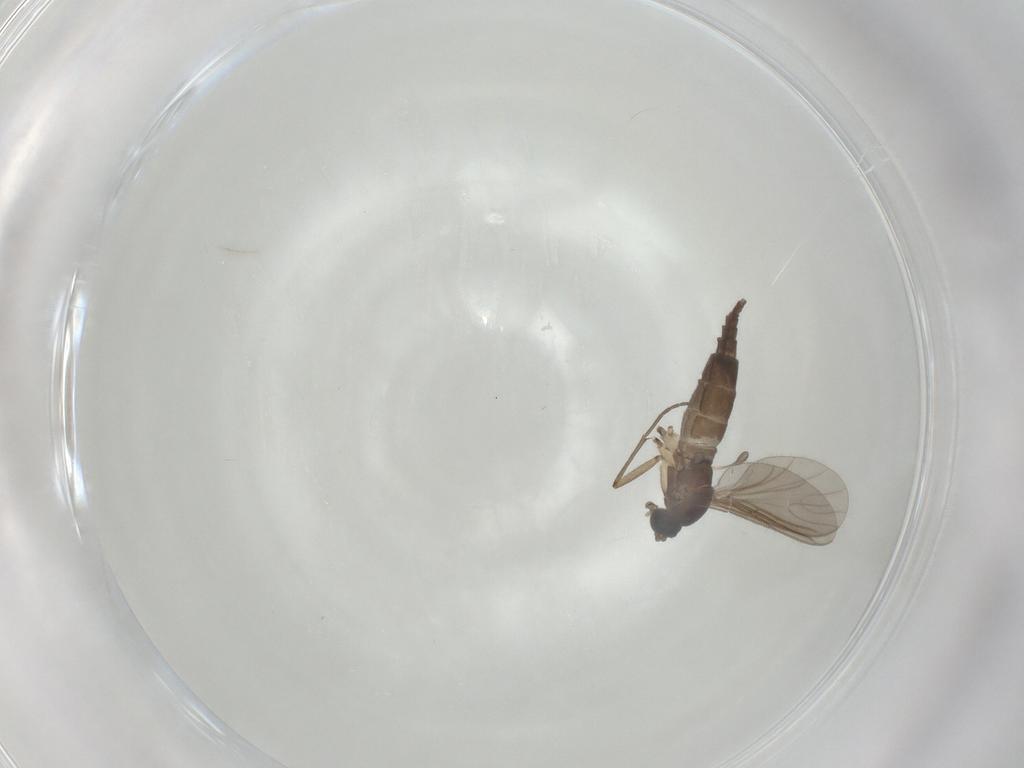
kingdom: Animalia
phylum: Arthropoda
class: Insecta
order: Diptera
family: Sciaridae
